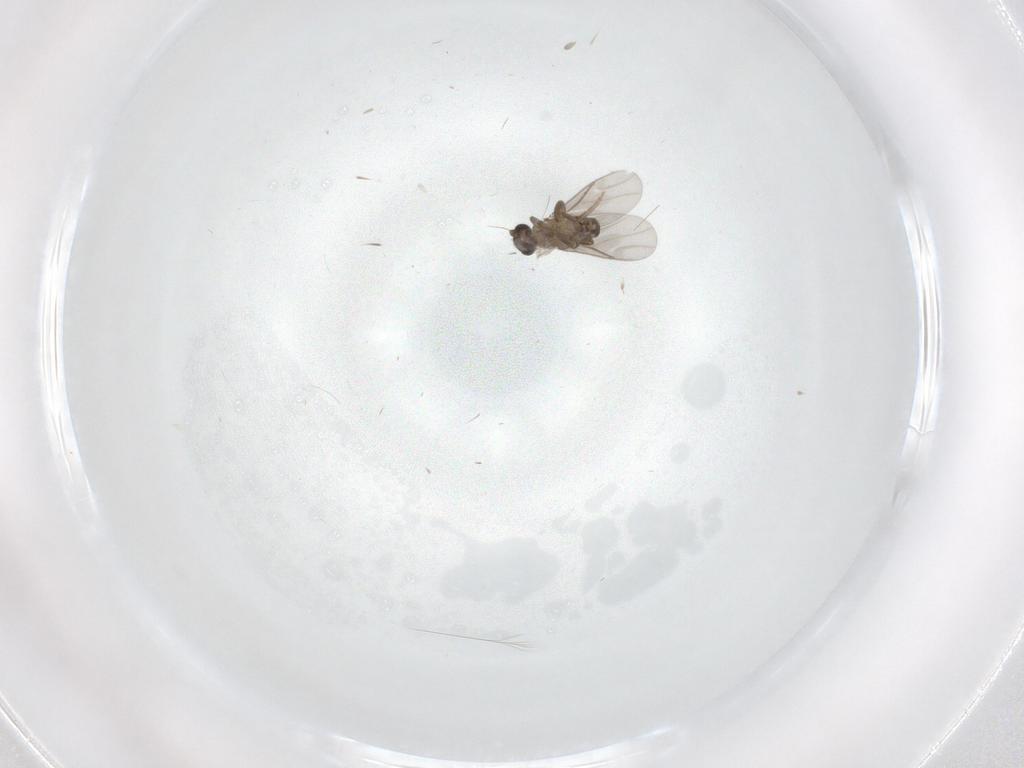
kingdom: Animalia
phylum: Arthropoda
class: Insecta
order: Diptera
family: Cecidomyiidae
